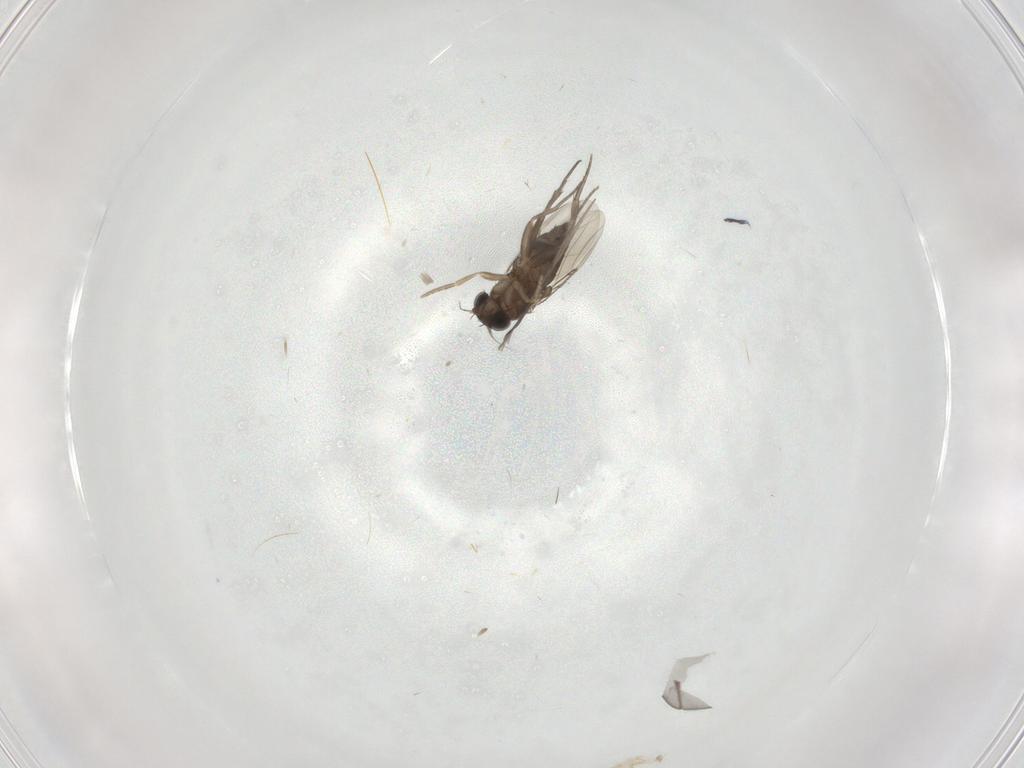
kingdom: Animalia
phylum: Arthropoda
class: Insecta
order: Diptera
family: Cecidomyiidae
